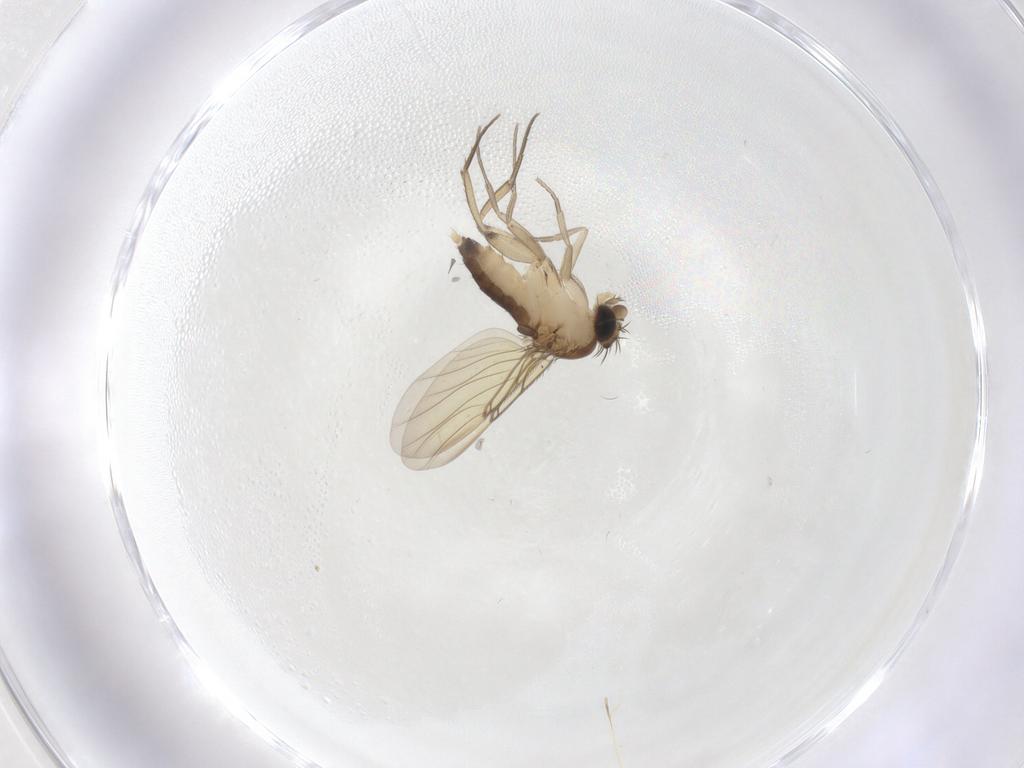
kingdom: Animalia
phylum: Arthropoda
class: Insecta
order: Diptera
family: Phoridae
